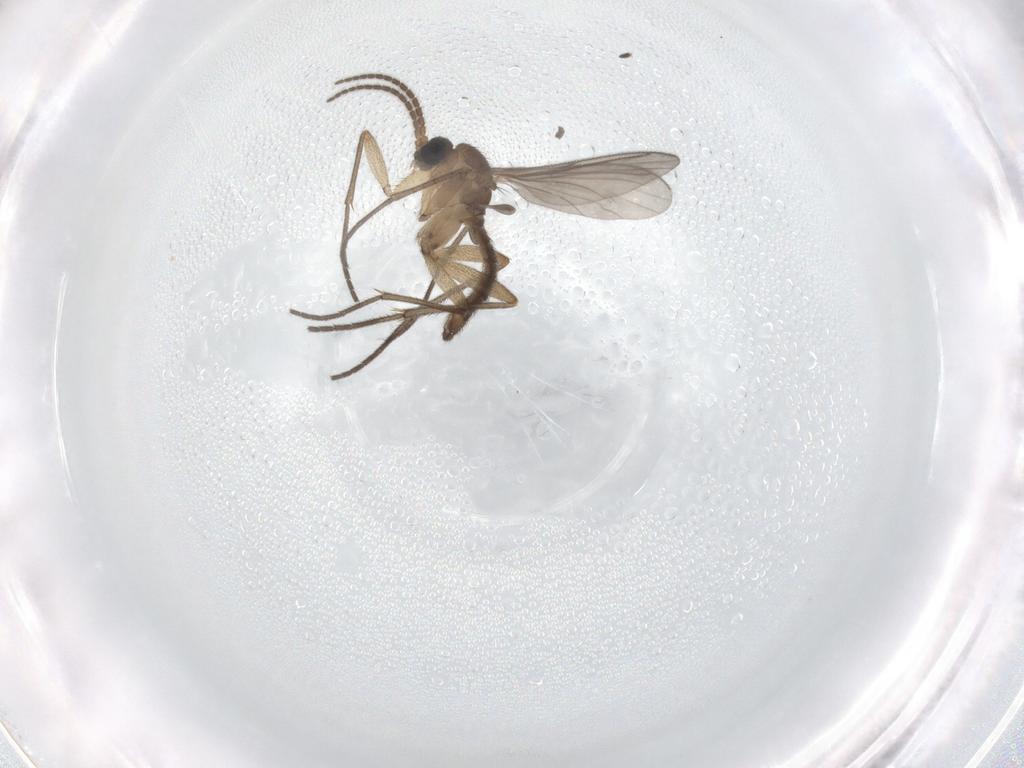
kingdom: Animalia
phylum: Arthropoda
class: Insecta
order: Diptera
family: Sciaridae
